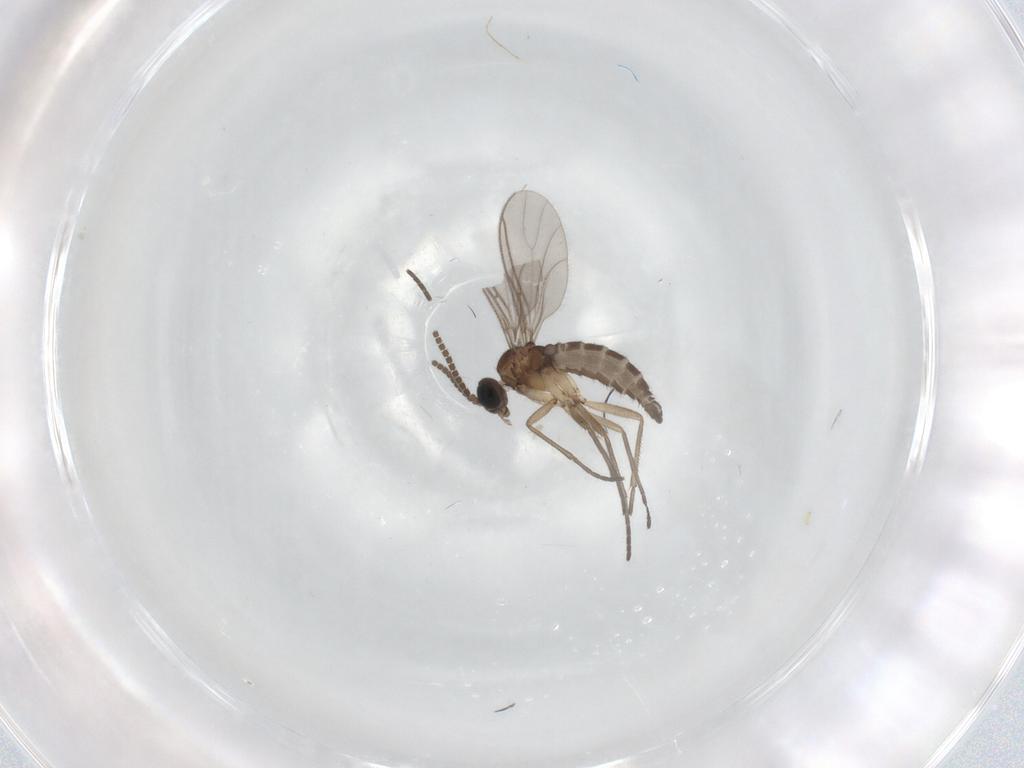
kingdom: Animalia
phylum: Arthropoda
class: Insecta
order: Diptera
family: Sciaridae
